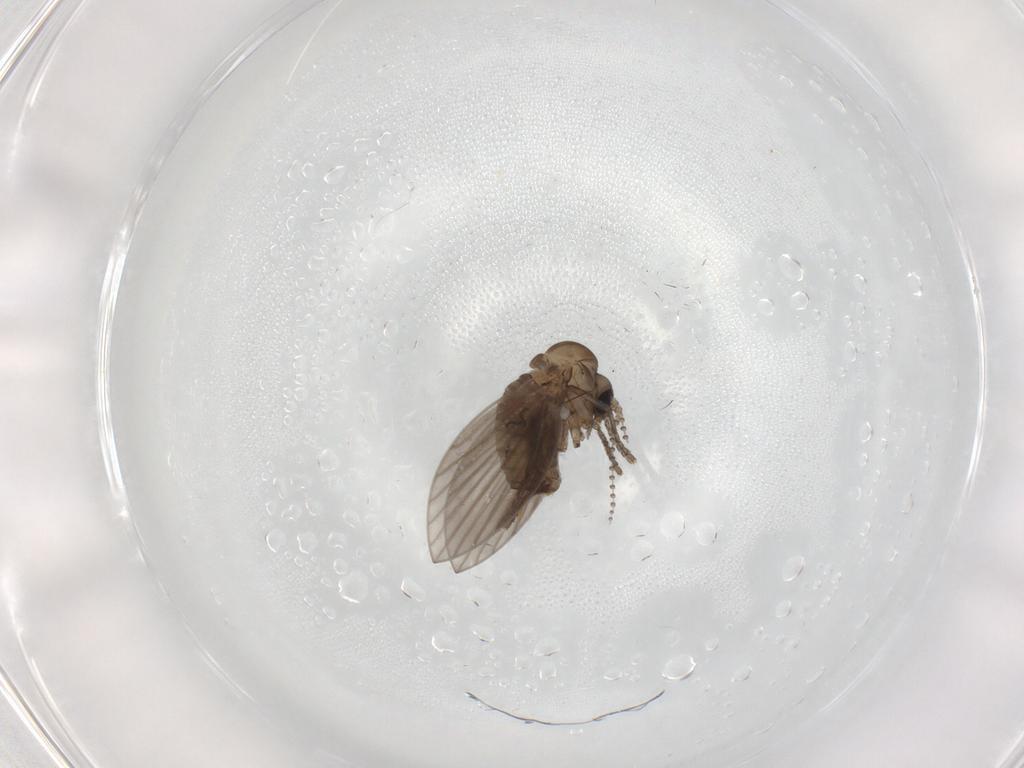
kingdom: Animalia
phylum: Arthropoda
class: Insecta
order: Diptera
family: Psychodidae
